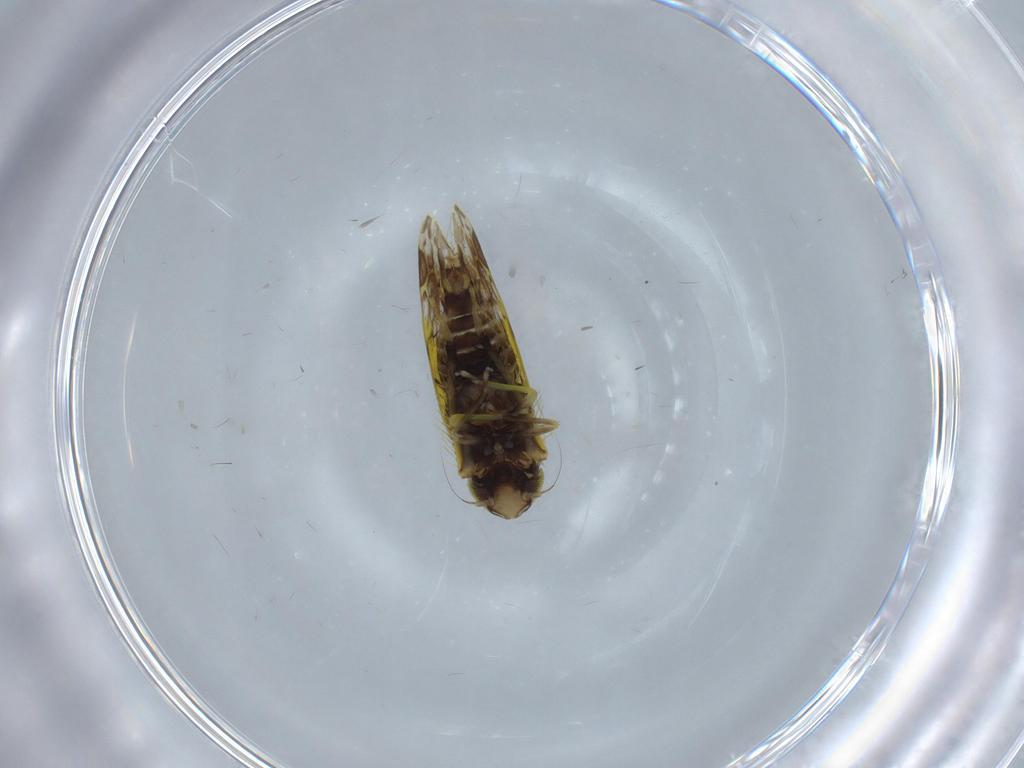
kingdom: Animalia
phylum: Arthropoda
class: Insecta
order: Hemiptera
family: Cicadellidae
